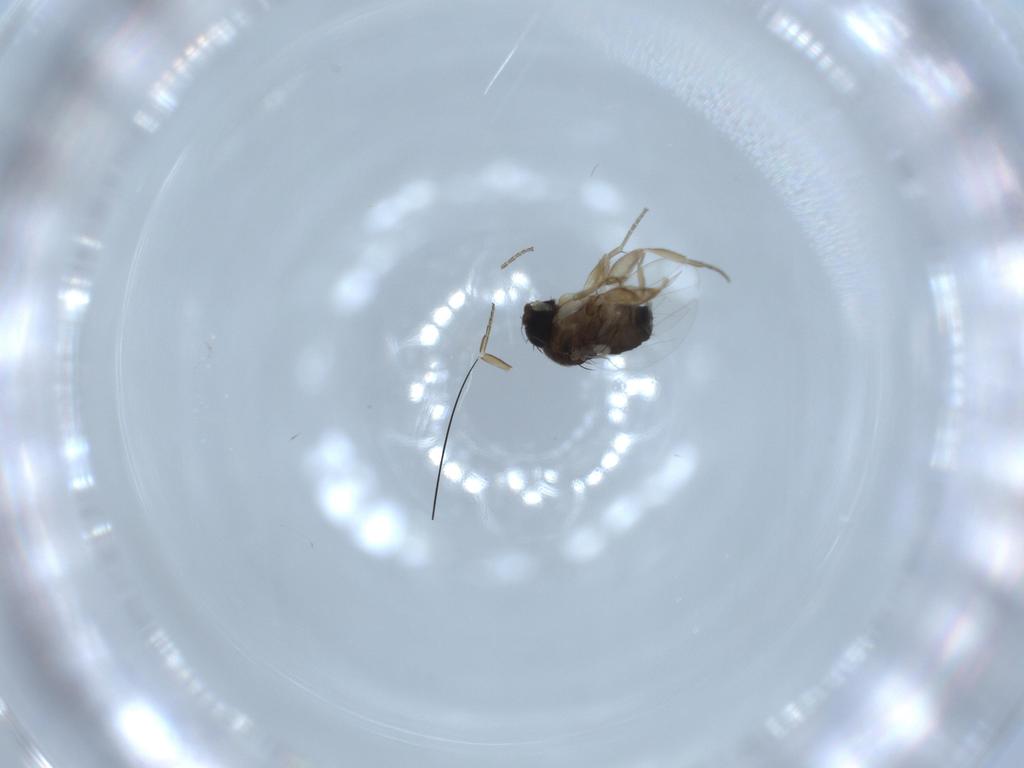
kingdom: Animalia
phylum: Arthropoda
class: Insecta
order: Diptera
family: Phoridae
